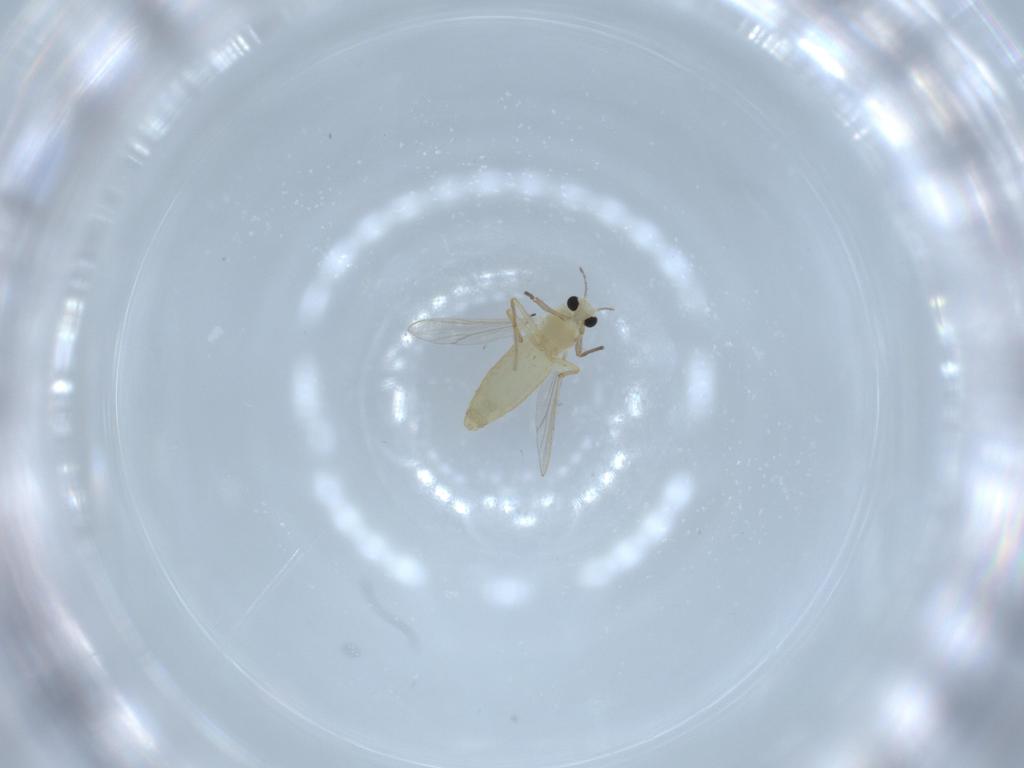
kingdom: Animalia
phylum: Arthropoda
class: Insecta
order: Diptera
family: Chironomidae
